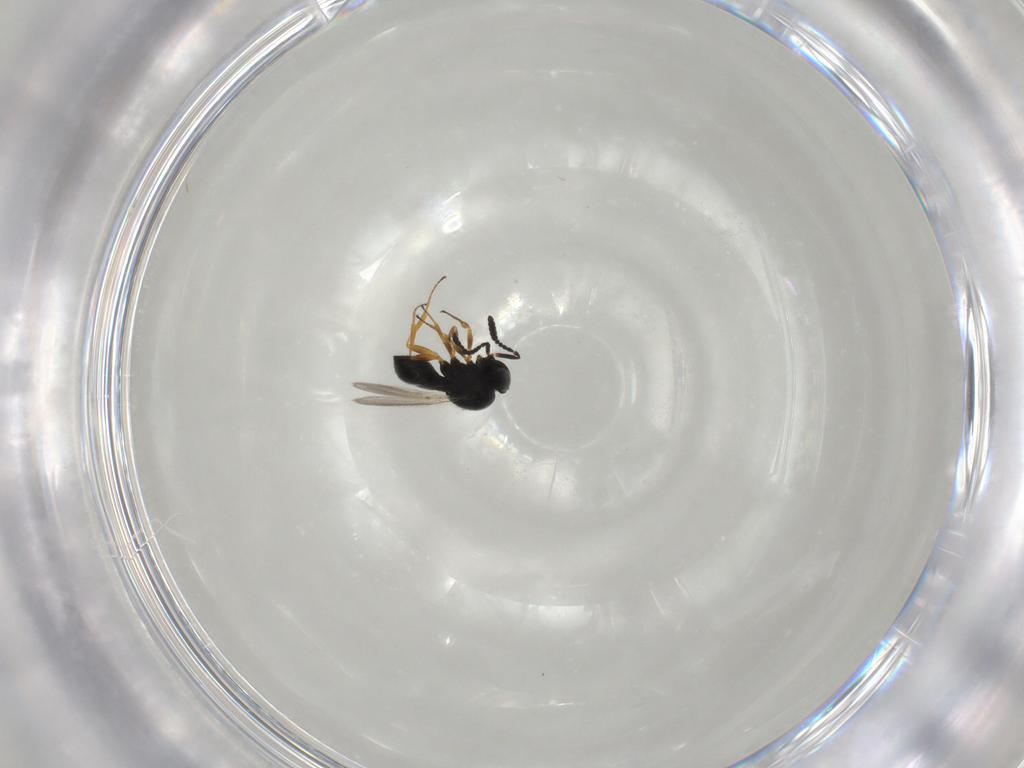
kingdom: Animalia
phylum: Arthropoda
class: Insecta
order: Hymenoptera
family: Scelionidae
